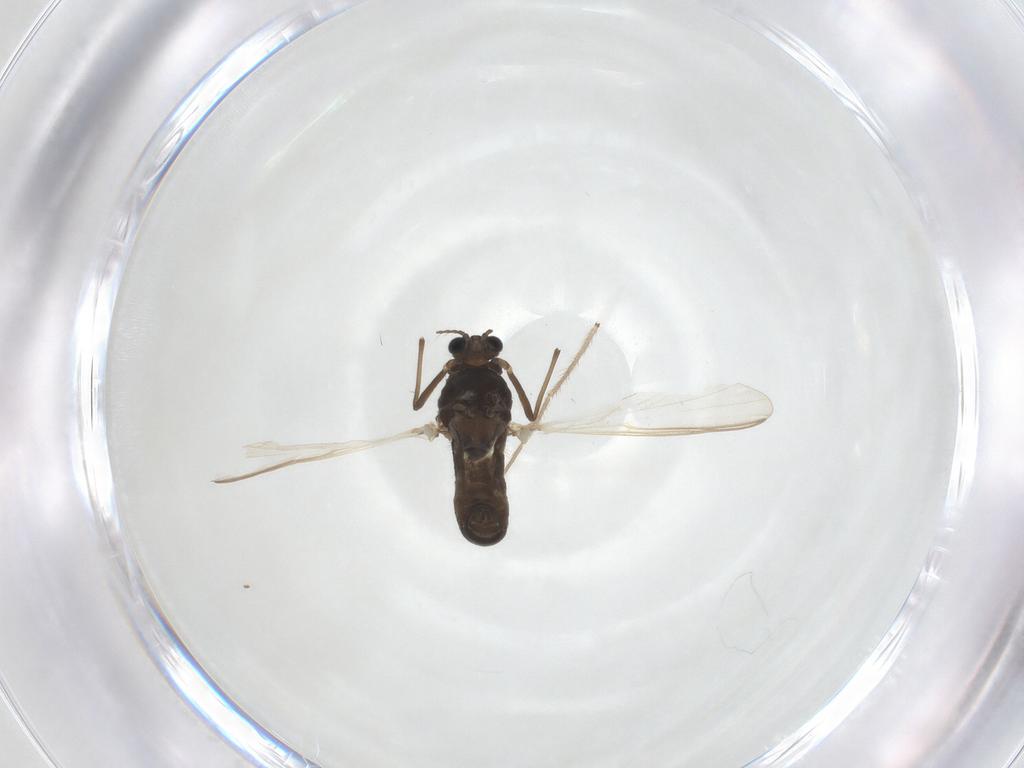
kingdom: Animalia
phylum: Arthropoda
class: Insecta
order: Diptera
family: Chironomidae
